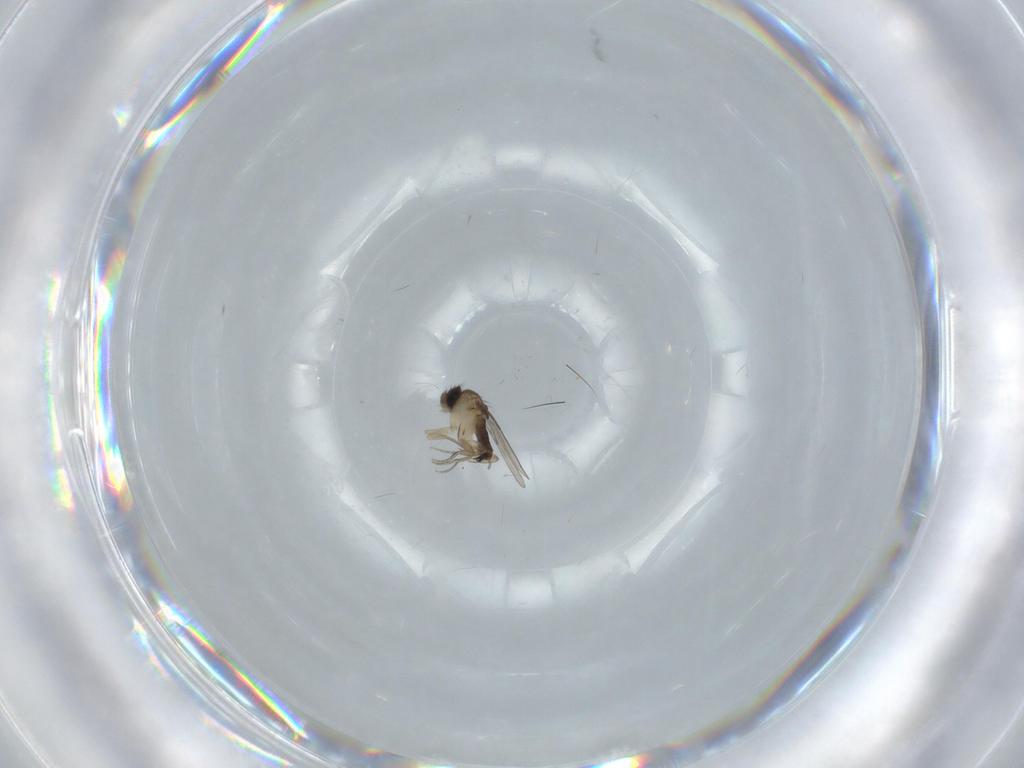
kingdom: Animalia
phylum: Arthropoda
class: Insecta
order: Diptera
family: Phoridae
